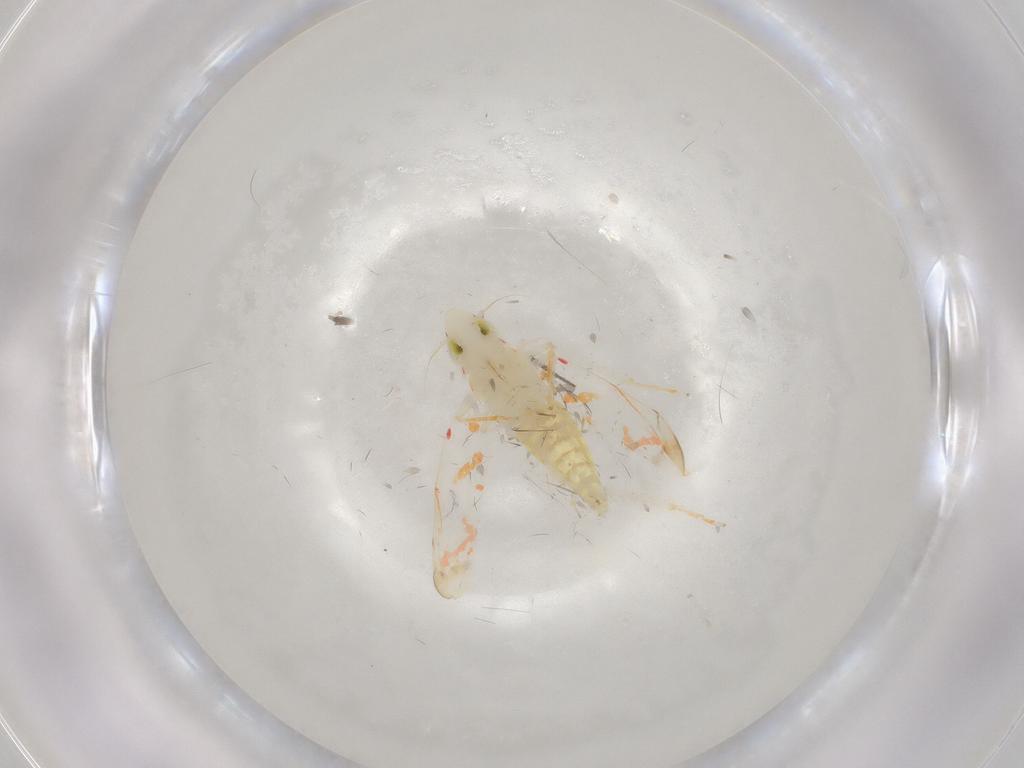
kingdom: Animalia
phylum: Arthropoda
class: Insecta
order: Hemiptera
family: Cicadellidae
